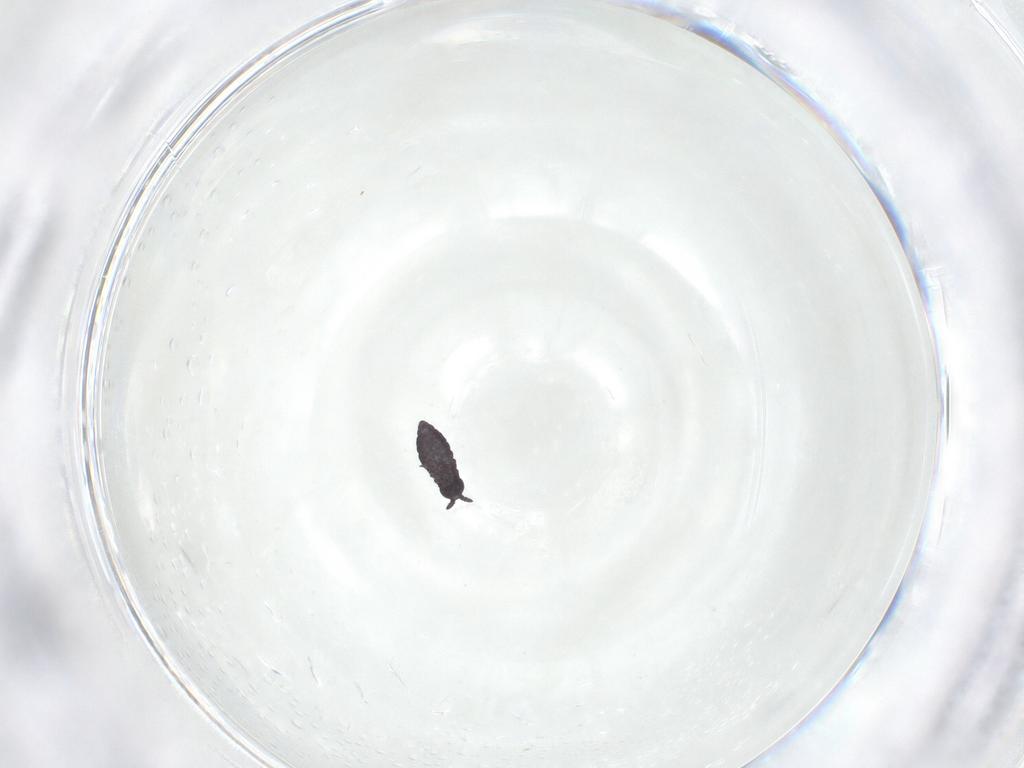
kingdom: Animalia
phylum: Arthropoda
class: Collembola
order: Poduromorpha
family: Hypogastruridae
